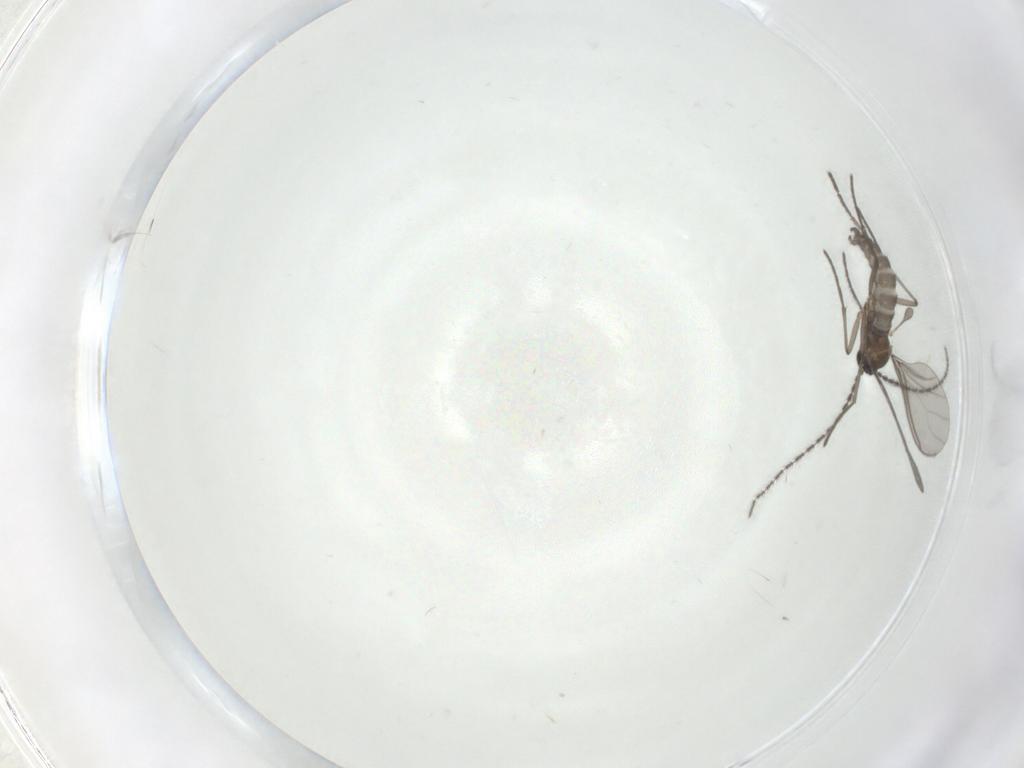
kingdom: Animalia
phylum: Arthropoda
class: Insecta
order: Diptera
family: Sciaridae
